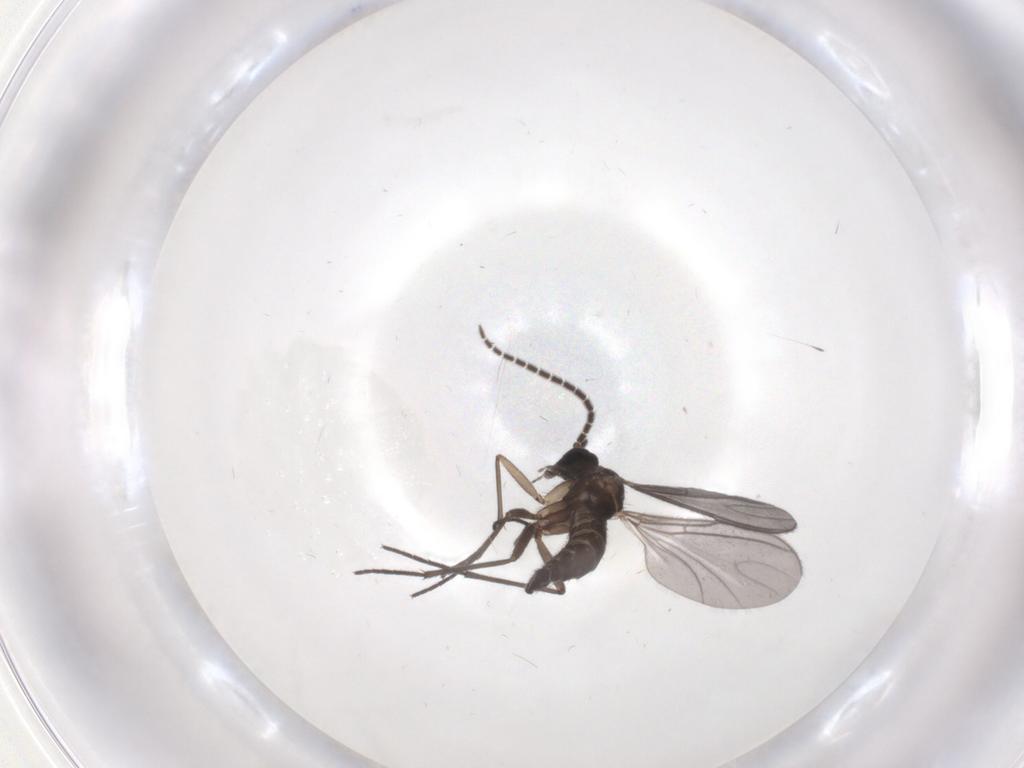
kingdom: Animalia
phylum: Arthropoda
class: Insecta
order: Diptera
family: Sciaridae
